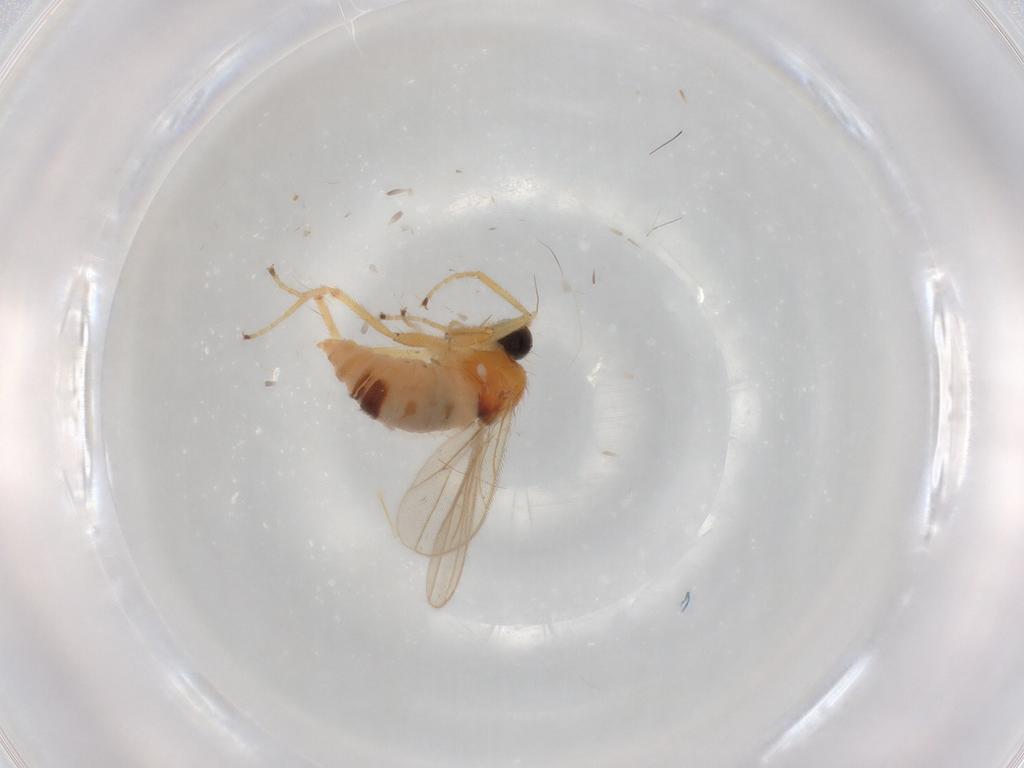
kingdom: Animalia
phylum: Arthropoda
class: Insecta
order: Diptera
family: Phoridae
